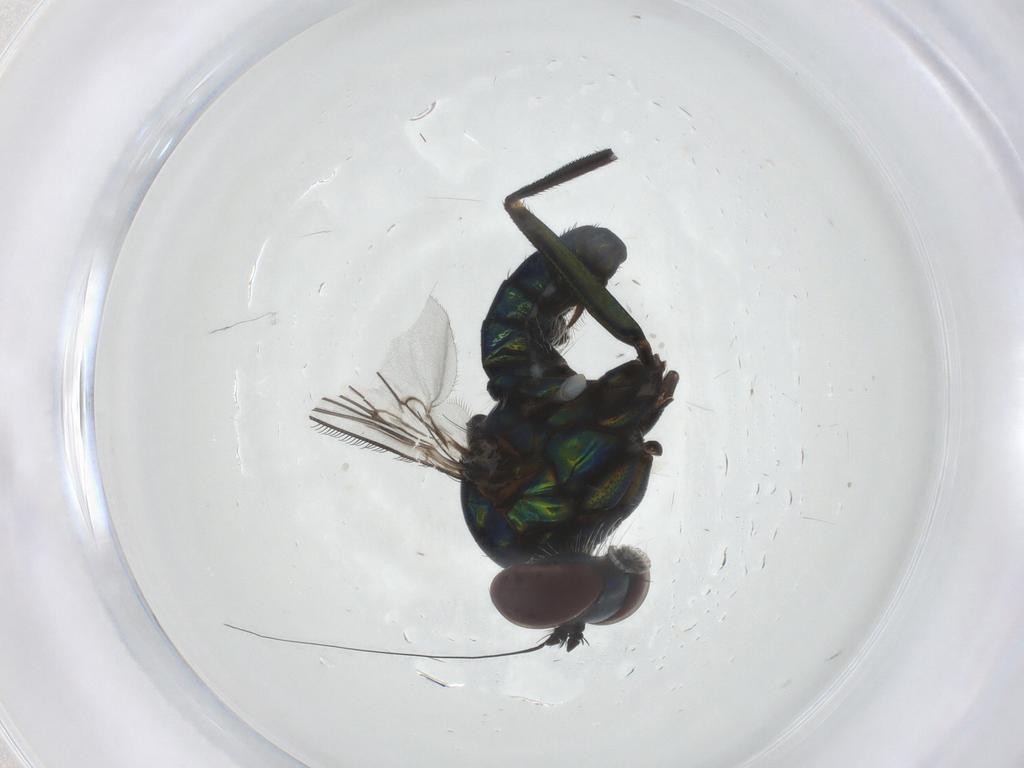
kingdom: Animalia
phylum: Arthropoda
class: Insecta
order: Diptera
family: Dolichopodidae
